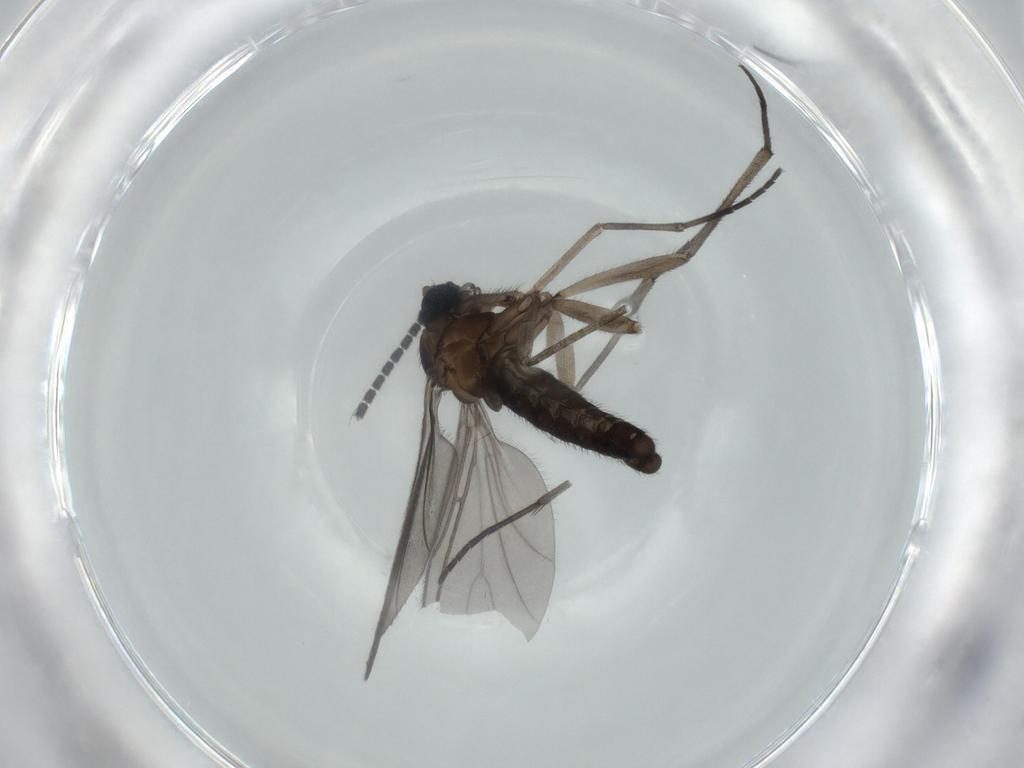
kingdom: Animalia
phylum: Arthropoda
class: Insecta
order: Diptera
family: Sciaridae
